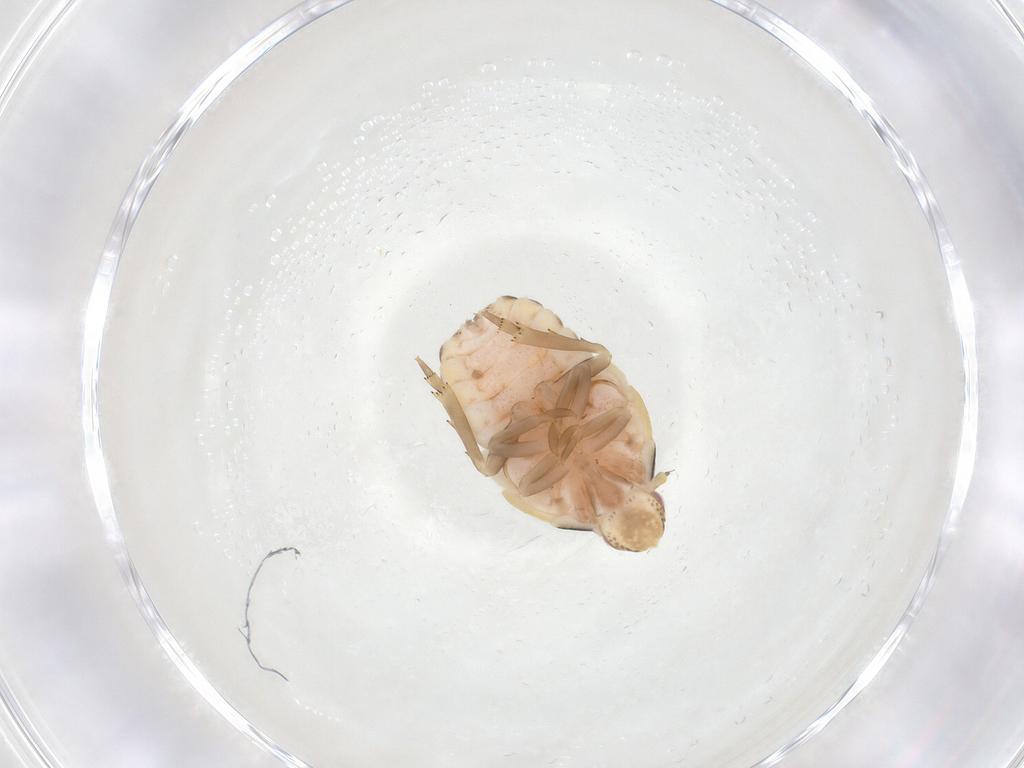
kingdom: Animalia
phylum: Arthropoda
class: Insecta
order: Hemiptera
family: Flatidae
